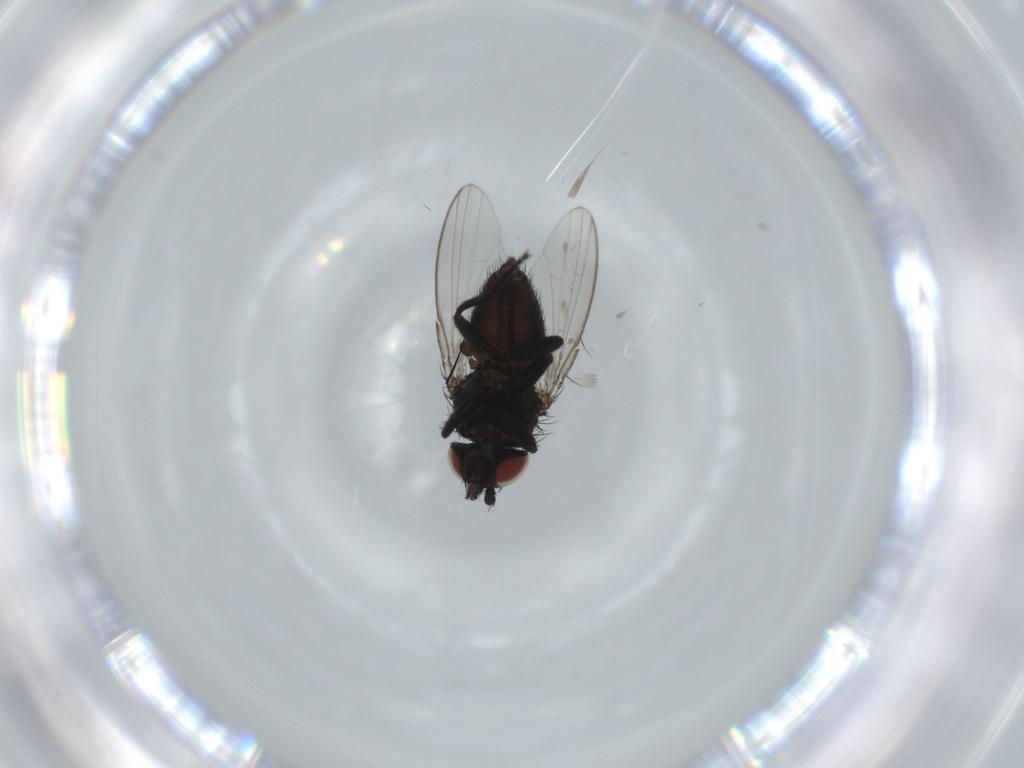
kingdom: Animalia
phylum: Arthropoda
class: Insecta
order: Diptera
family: Milichiidae
